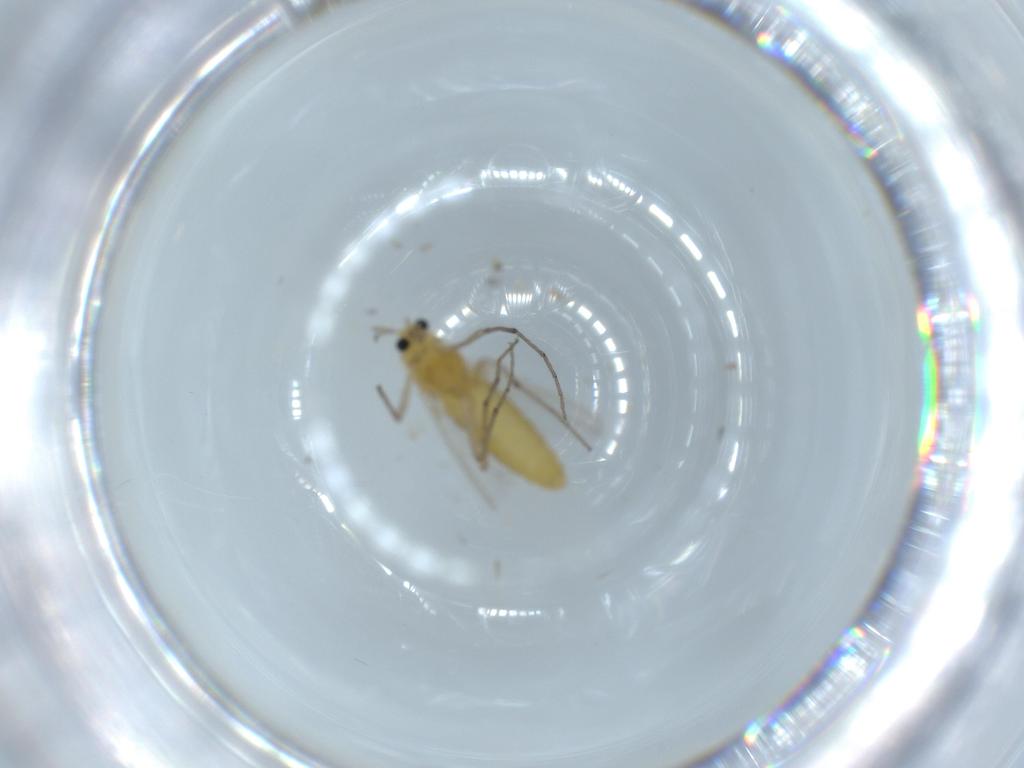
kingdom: Animalia
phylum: Arthropoda
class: Insecta
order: Diptera
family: Chironomidae
